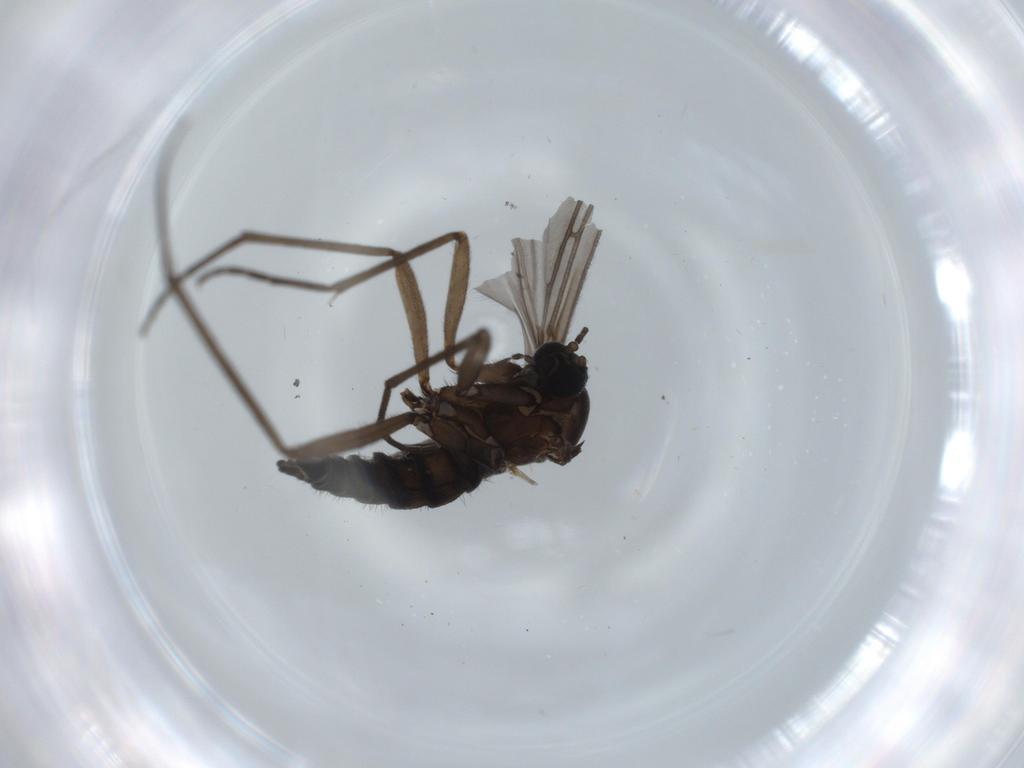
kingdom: Animalia
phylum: Arthropoda
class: Insecta
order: Diptera
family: Sciaridae
